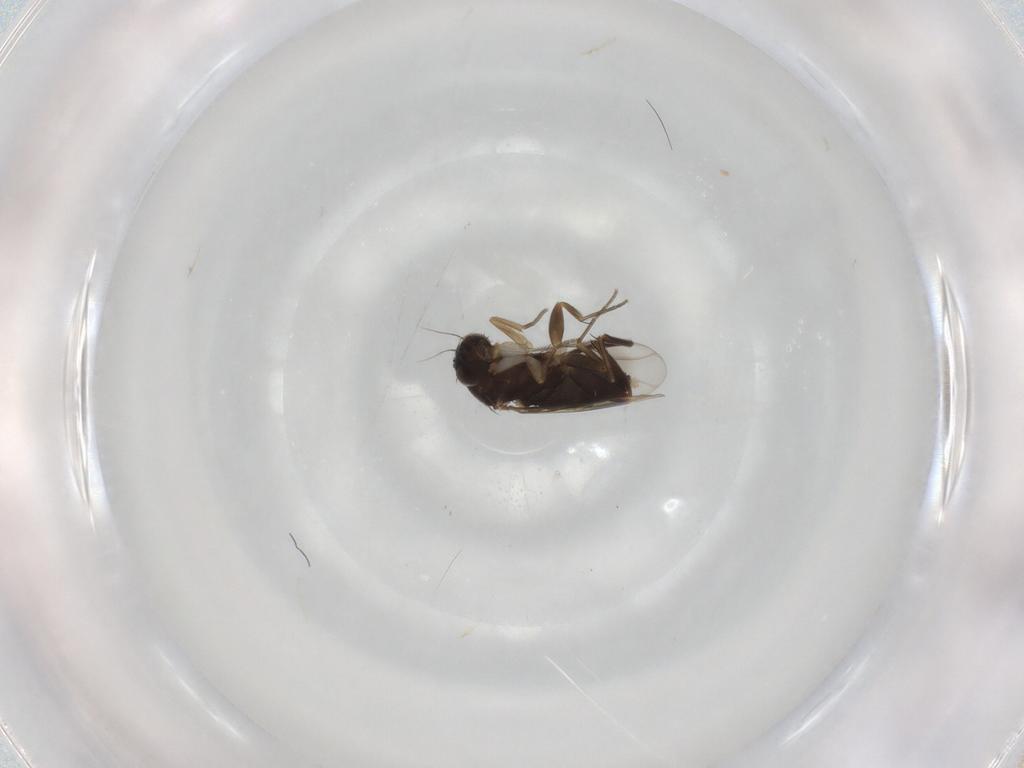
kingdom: Animalia
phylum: Arthropoda
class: Insecta
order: Diptera
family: Phoridae
